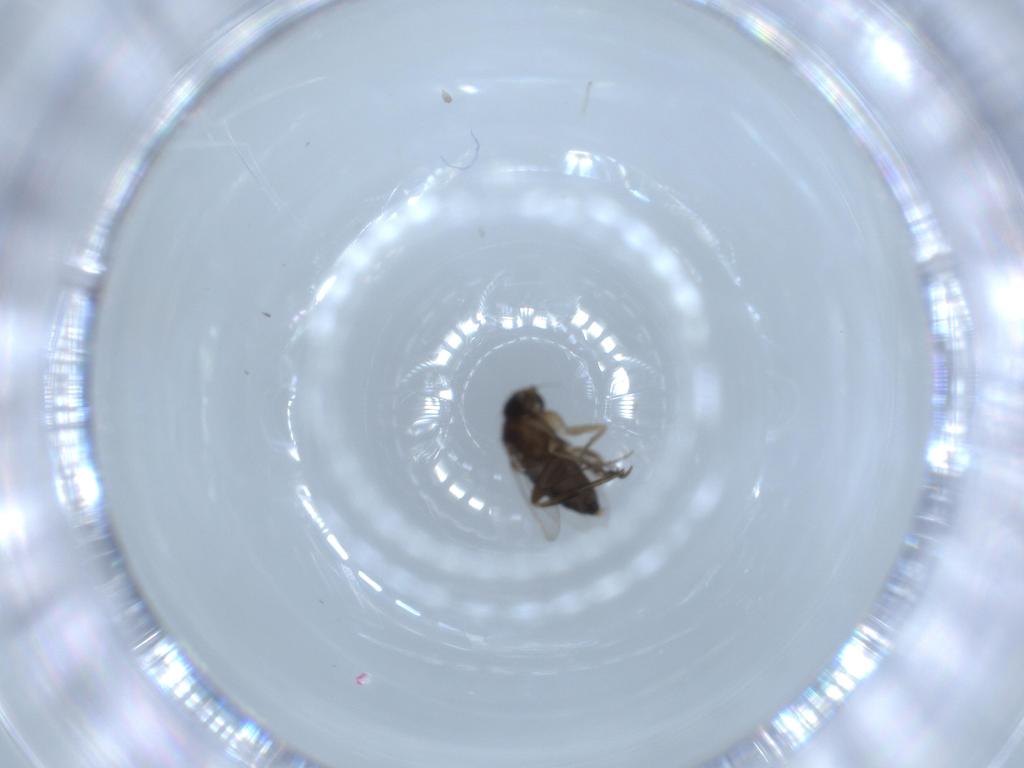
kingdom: Animalia
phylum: Arthropoda
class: Insecta
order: Diptera
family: Phoridae
